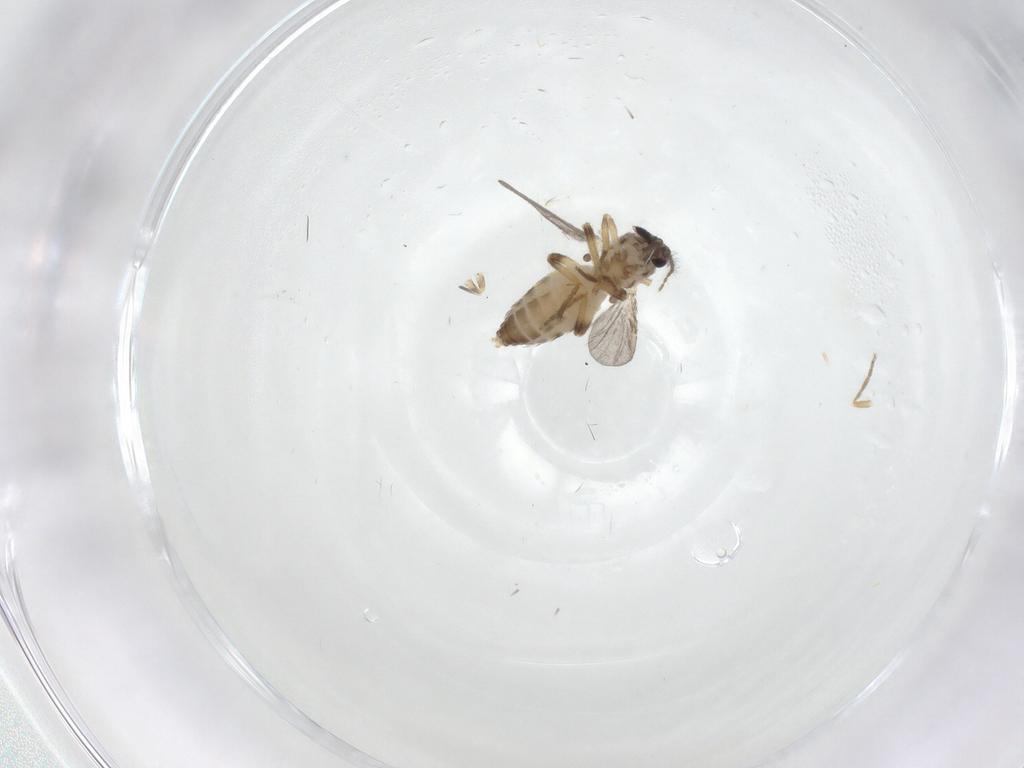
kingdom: Animalia
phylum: Arthropoda
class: Insecta
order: Diptera
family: Ceratopogonidae
